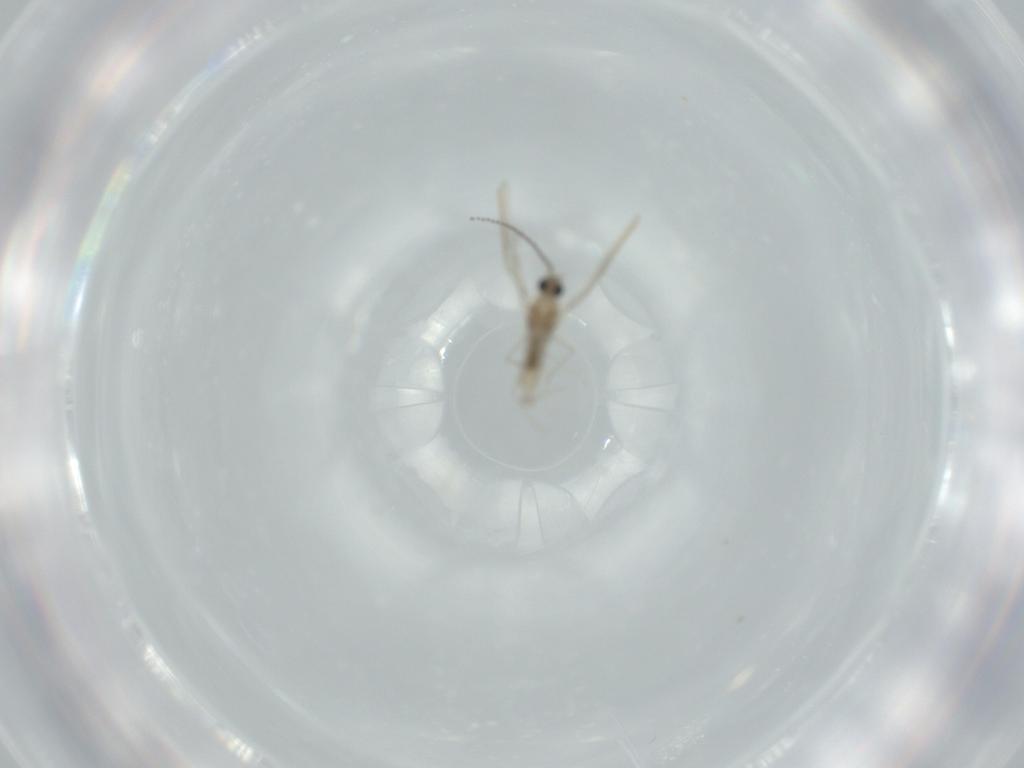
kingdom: Animalia
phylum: Arthropoda
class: Insecta
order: Diptera
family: Cecidomyiidae
